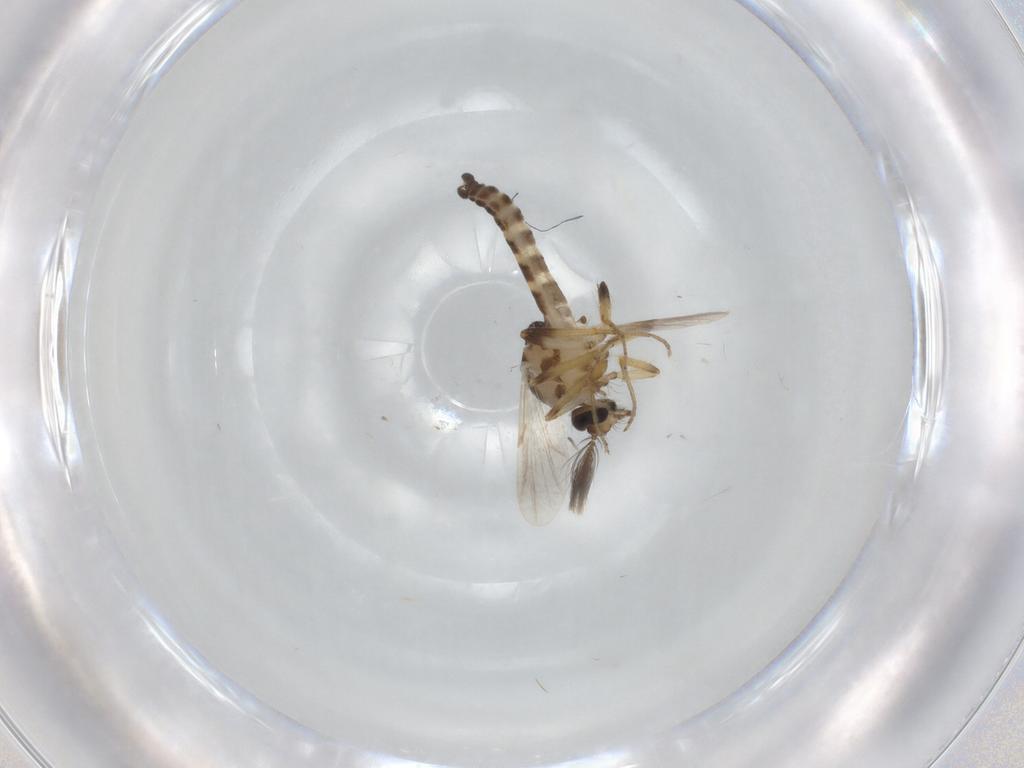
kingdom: Animalia
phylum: Arthropoda
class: Insecta
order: Diptera
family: Ceratopogonidae
